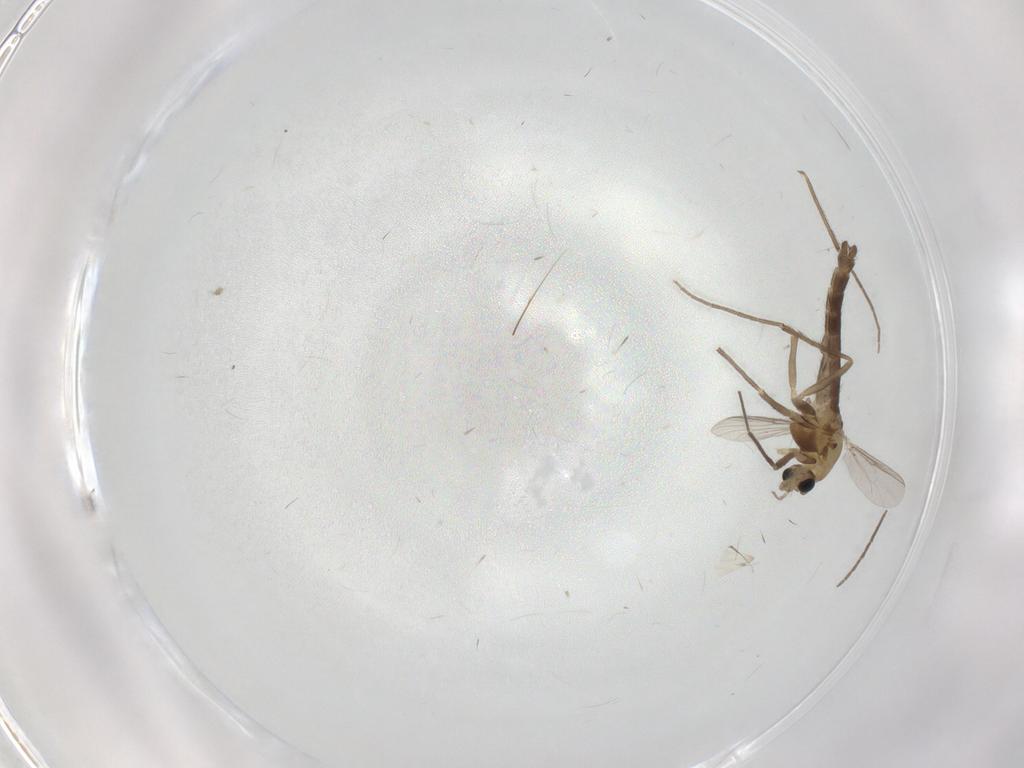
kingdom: Animalia
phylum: Arthropoda
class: Insecta
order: Diptera
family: Chironomidae
